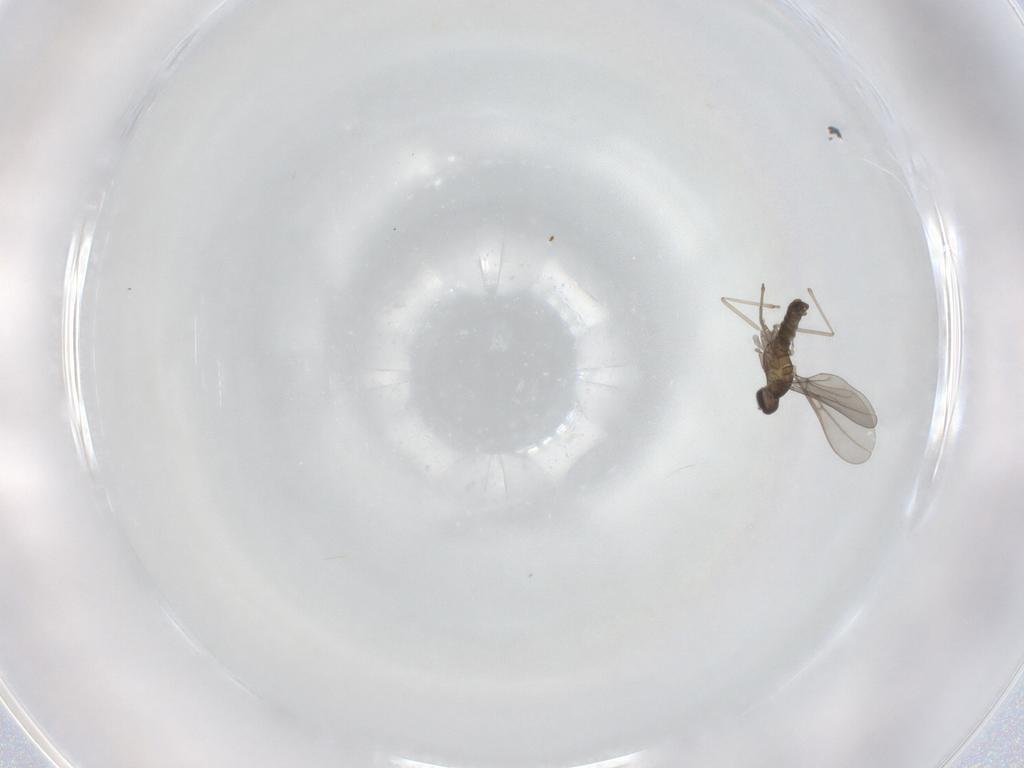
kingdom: Animalia
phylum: Arthropoda
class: Insecta
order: Diptera
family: Cecidomyiidae
